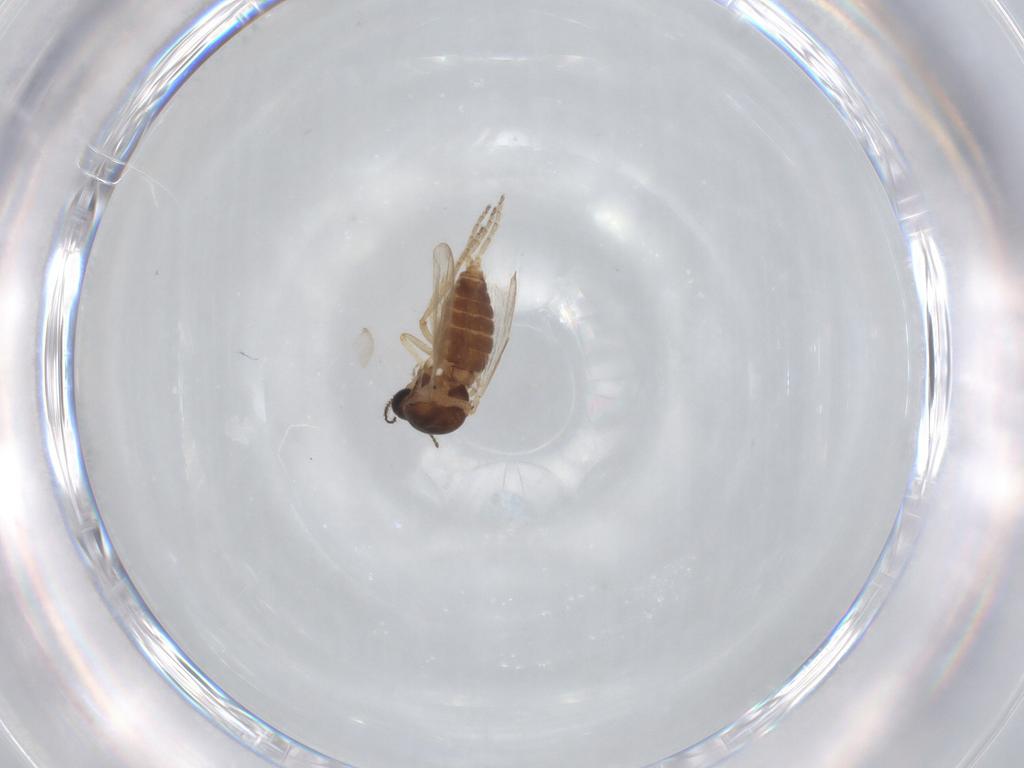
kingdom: Animalia
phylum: Arthropoda
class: Insecta
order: Diptera
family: Ceratopogonidae
